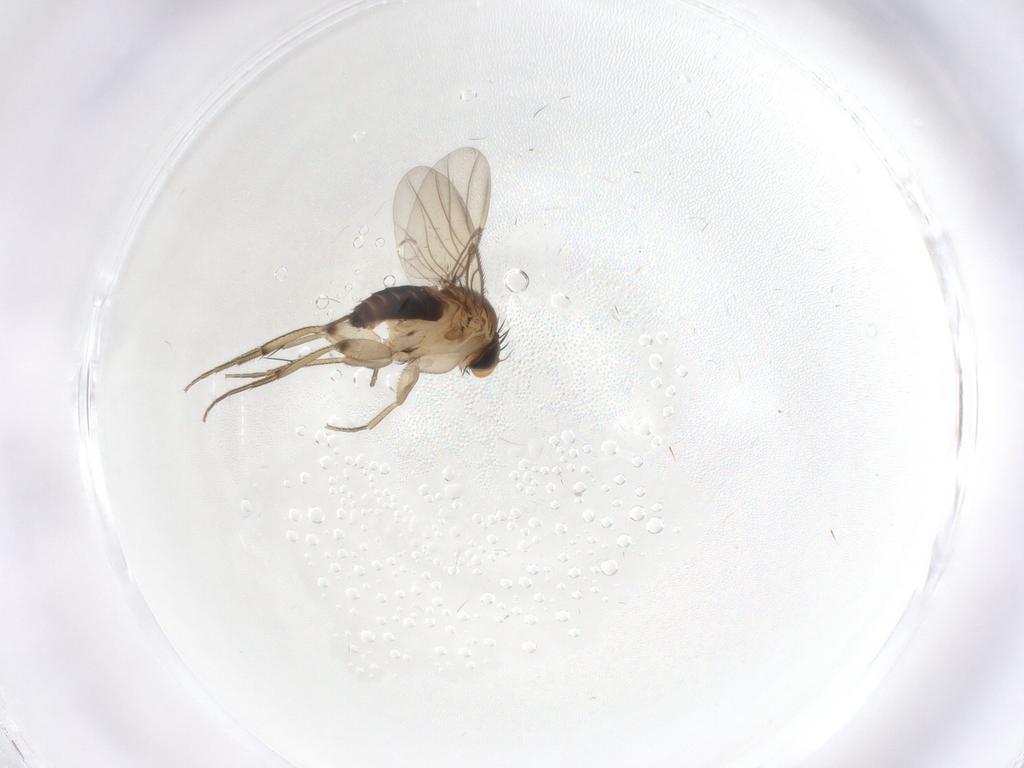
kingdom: Animalia
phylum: Arthropoda
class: Insecta
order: Diptera
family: Phoridae
